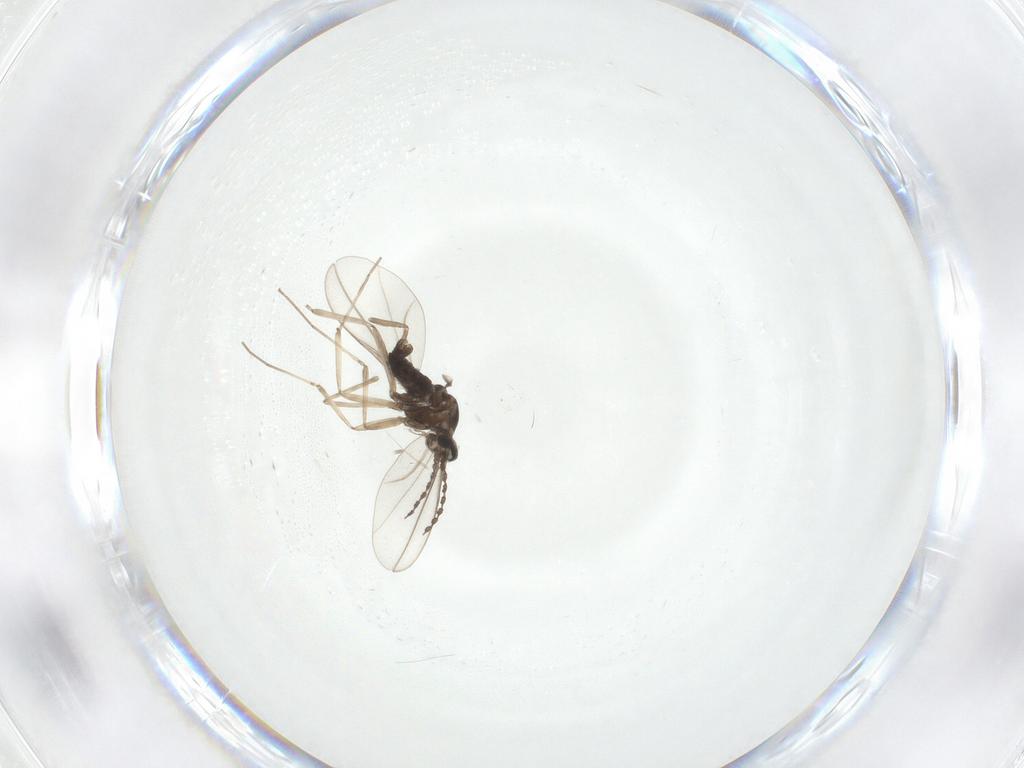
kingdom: Animalia
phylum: Arthropoda
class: Insecta
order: Diptera
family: Cecidomyiidae
